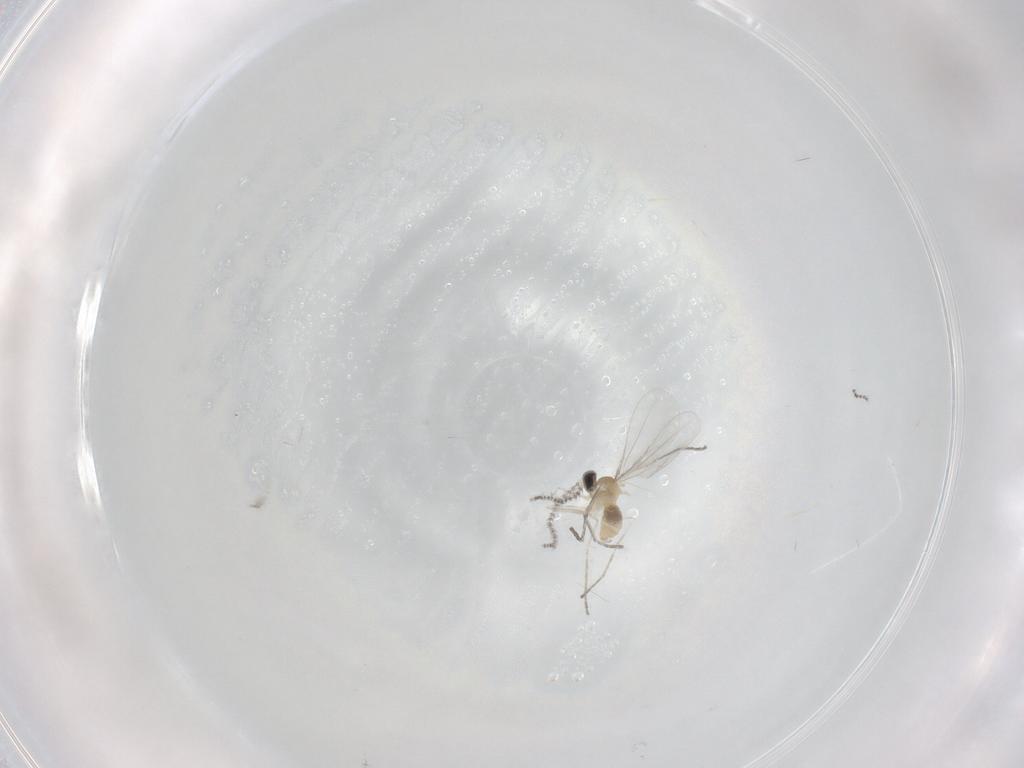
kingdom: Animalia
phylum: Arthropoda
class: Insecta
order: Diptera
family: Cecidomyiidae
